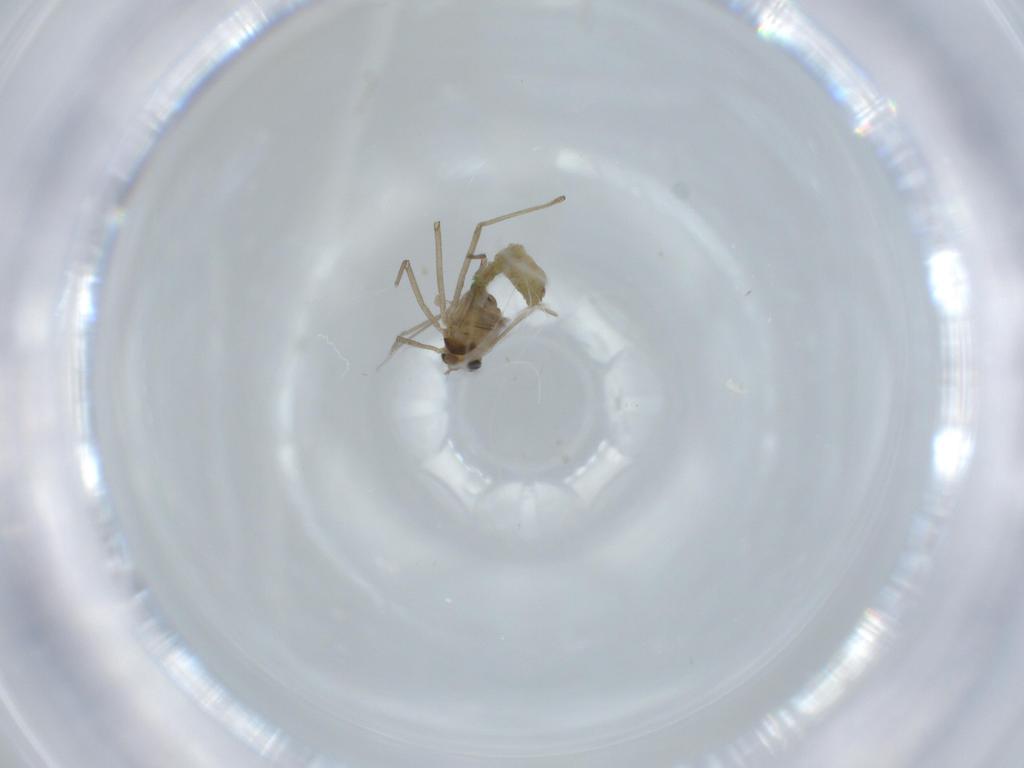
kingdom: Animalia
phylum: Arthropoda
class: Insecta
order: Diptera
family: Chironomidae
